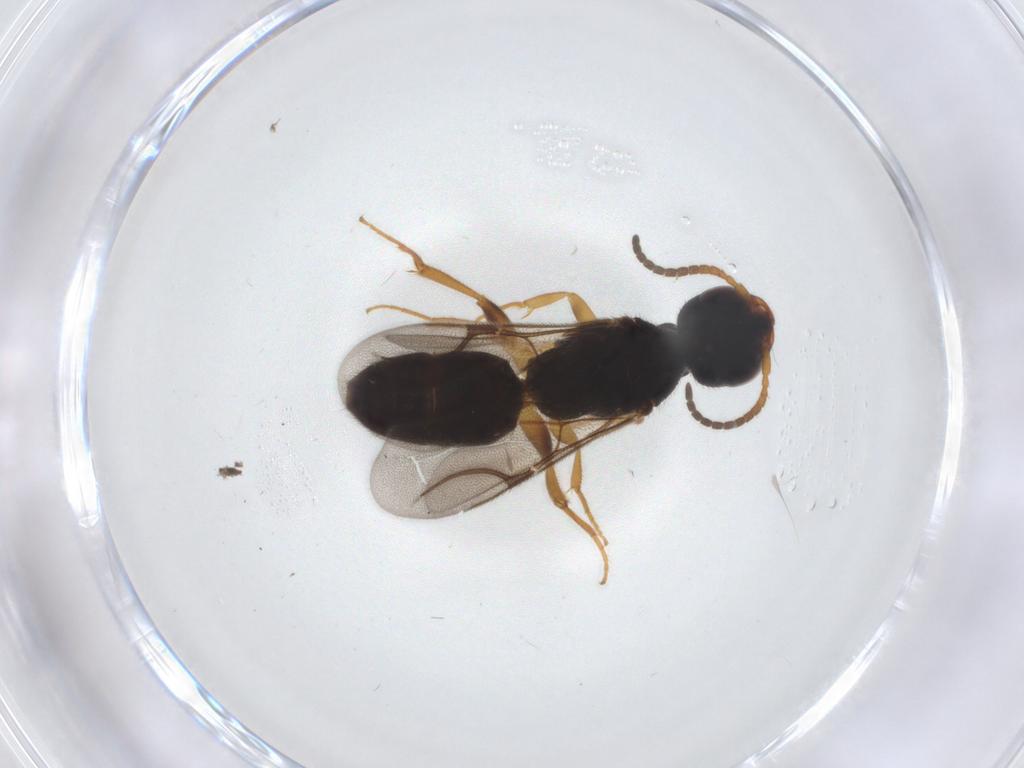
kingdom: Animalia
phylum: Arthropoda
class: Insecta
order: Hymenoptera
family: Bethylidae
